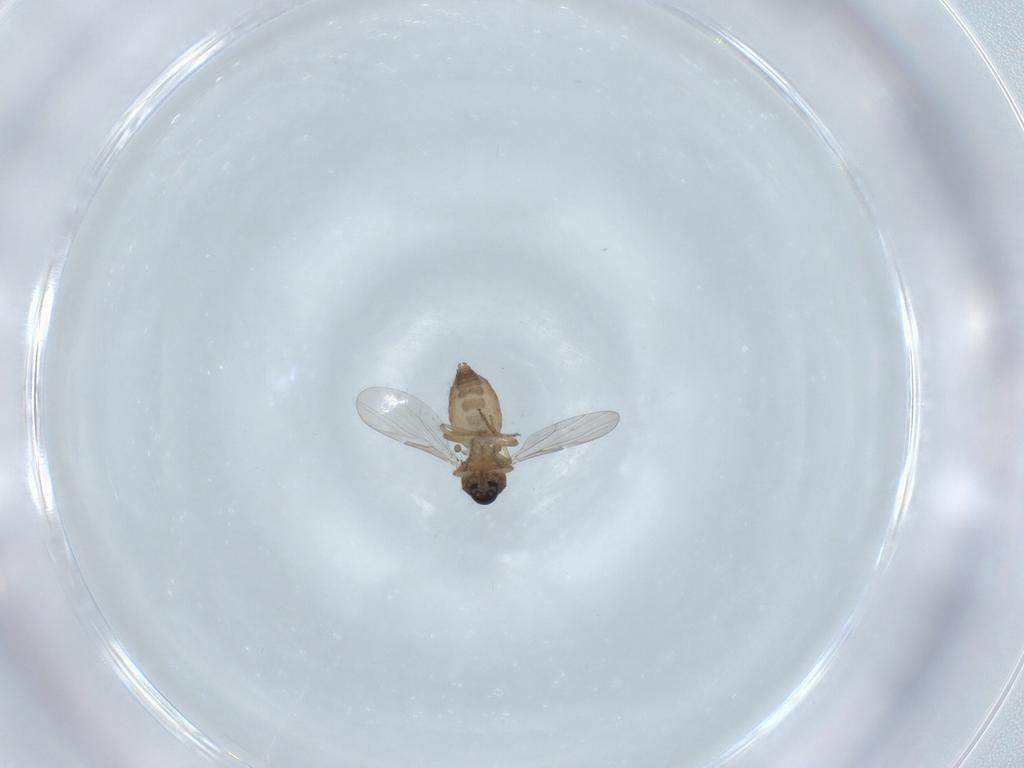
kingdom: Animalia
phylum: Arthropoda
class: Insecta
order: Diptera
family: Ceratopogonidae
